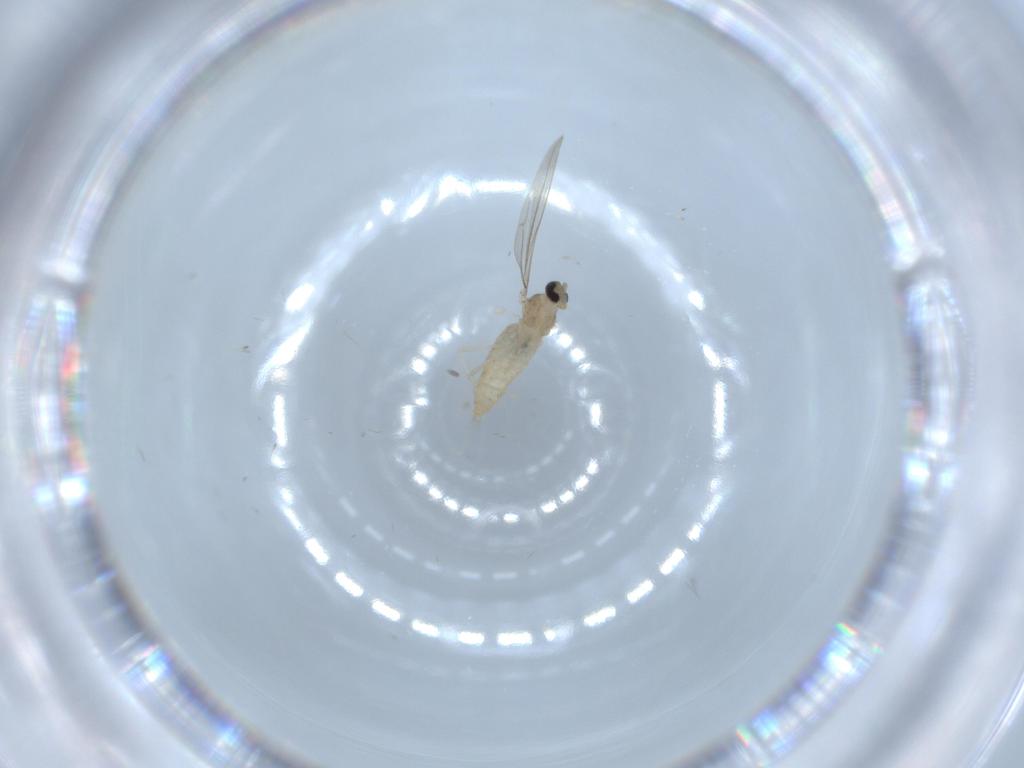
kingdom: Animalia
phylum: Arthropoda
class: Insecta
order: Diptera
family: Cecidomyiidae
